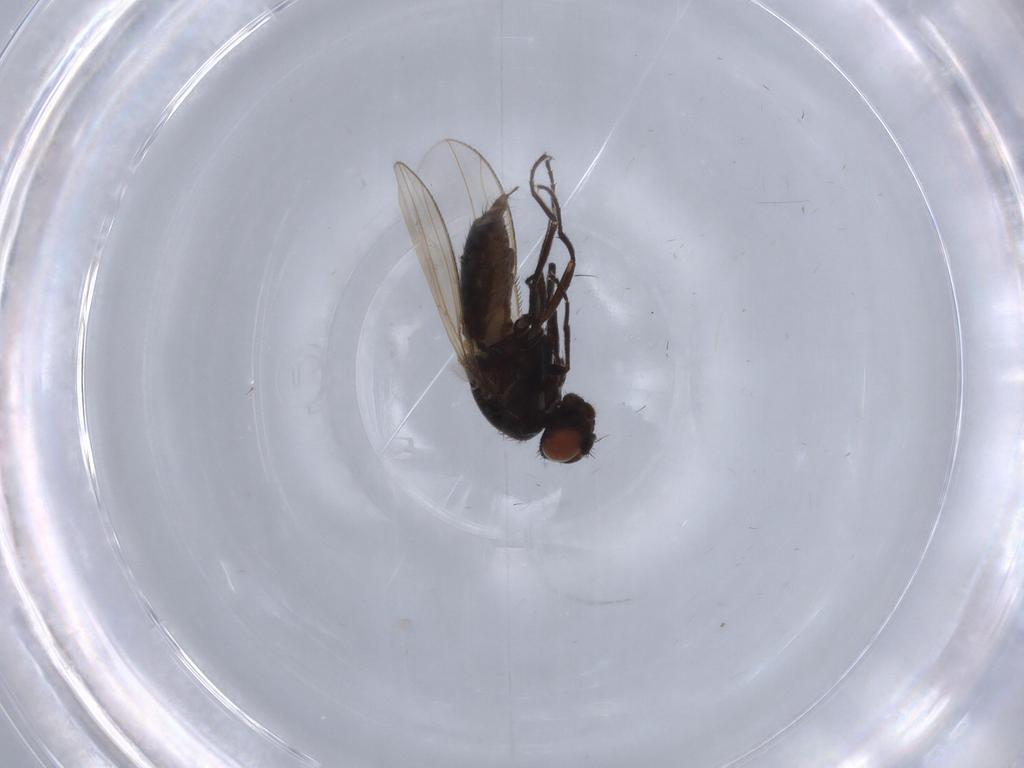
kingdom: Animalia
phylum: Arthropoda
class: Insecta
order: Diptera
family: Carnidae
